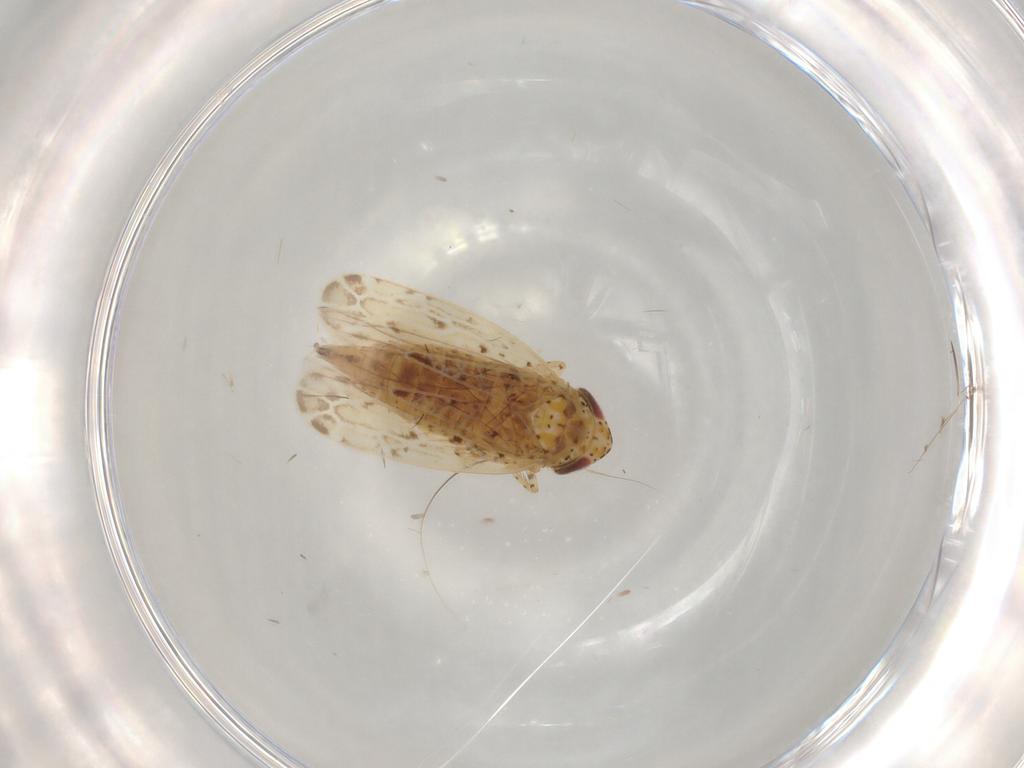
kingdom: Animalia
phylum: Arthropoda
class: Insecta
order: Hemiptera
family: Cicadellidae
